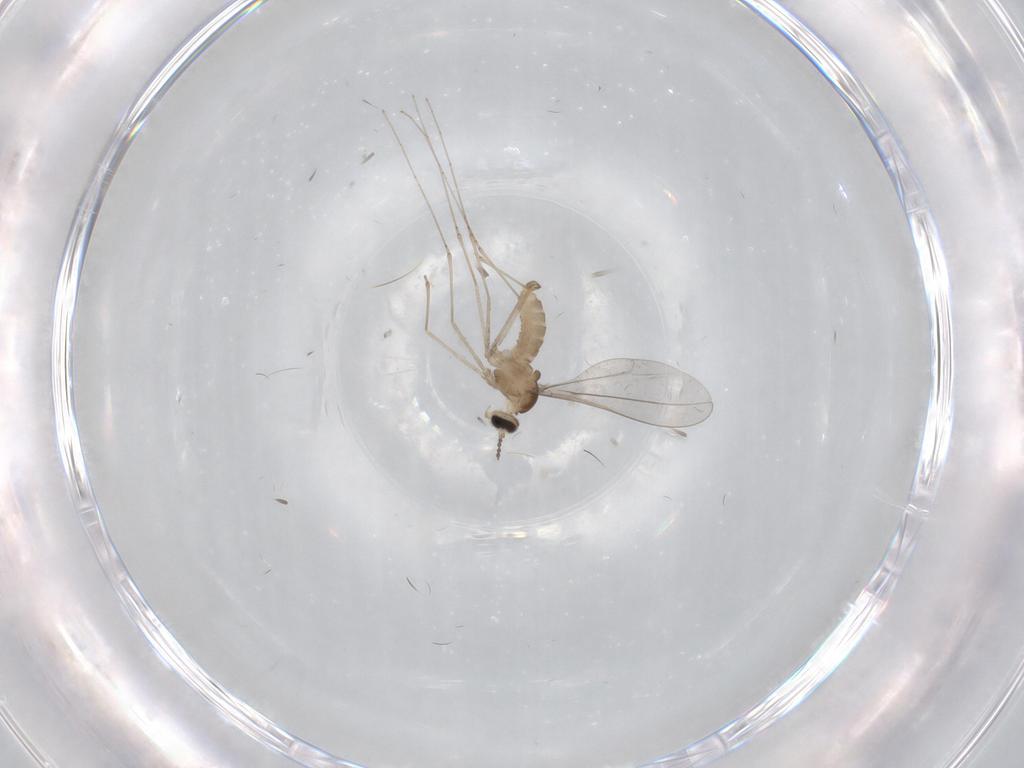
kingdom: Animalia
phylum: Arthropoda
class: Insecta
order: Diptera
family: Cecidomyiidae
